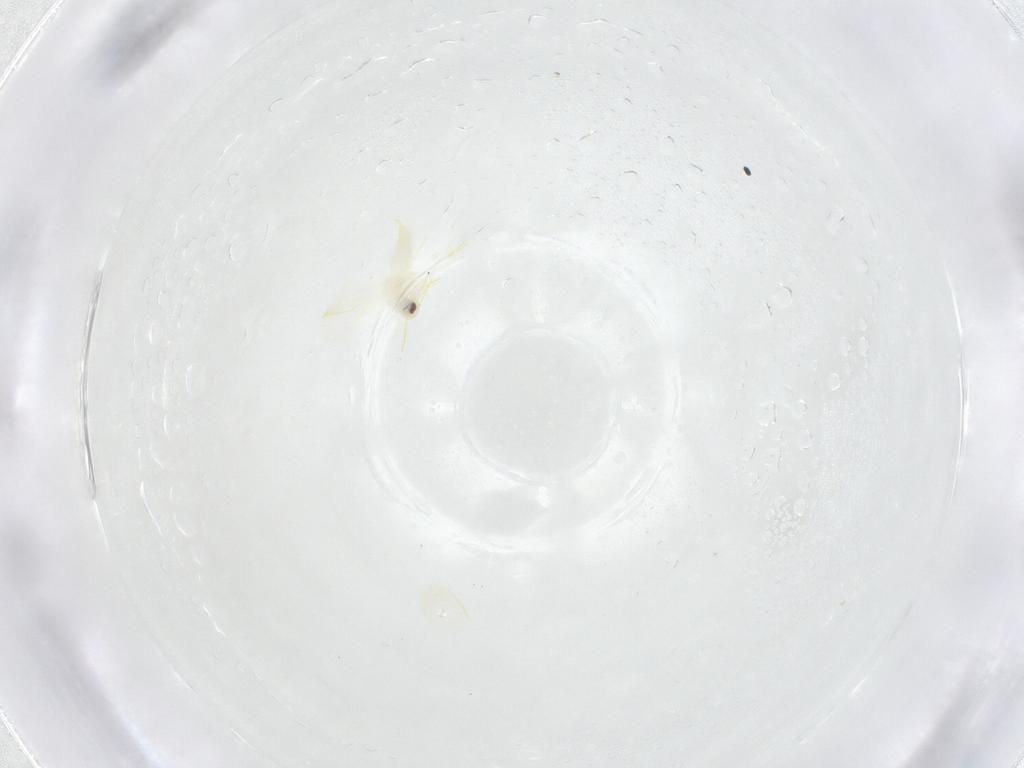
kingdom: Animalia
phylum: Arthropoda
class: Insecta
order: Hemiptera
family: Aleyrodidae
